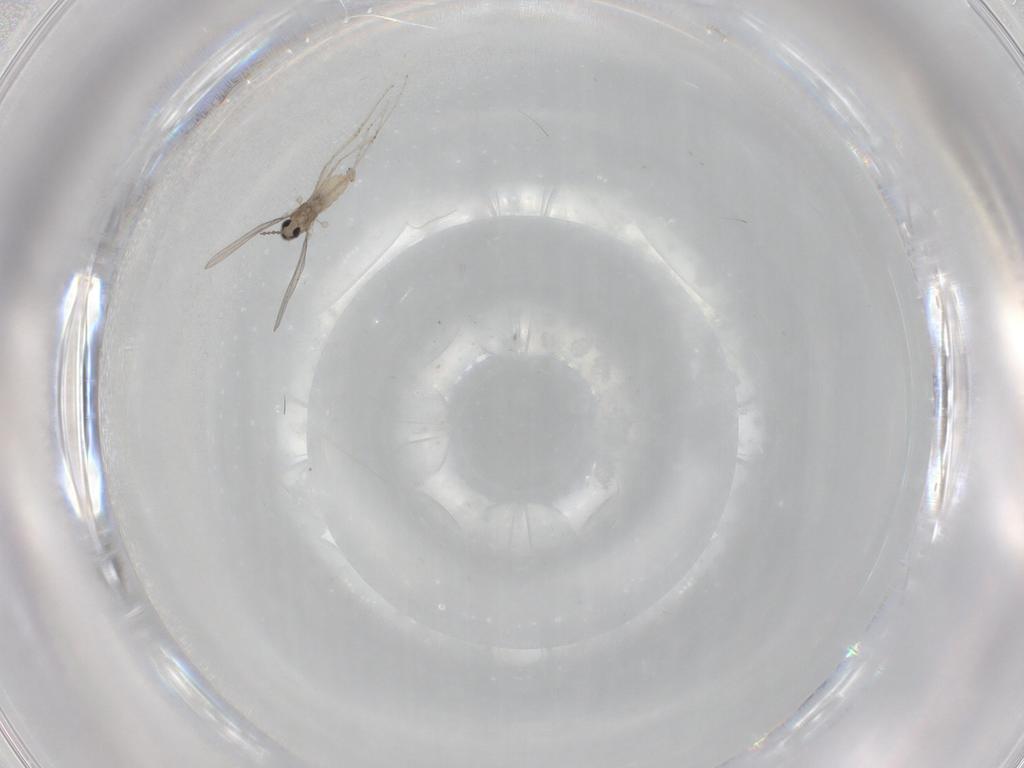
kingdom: Animalia
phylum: Arthropoda
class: Insecta
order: Diptera
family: Cecidomyiidae
